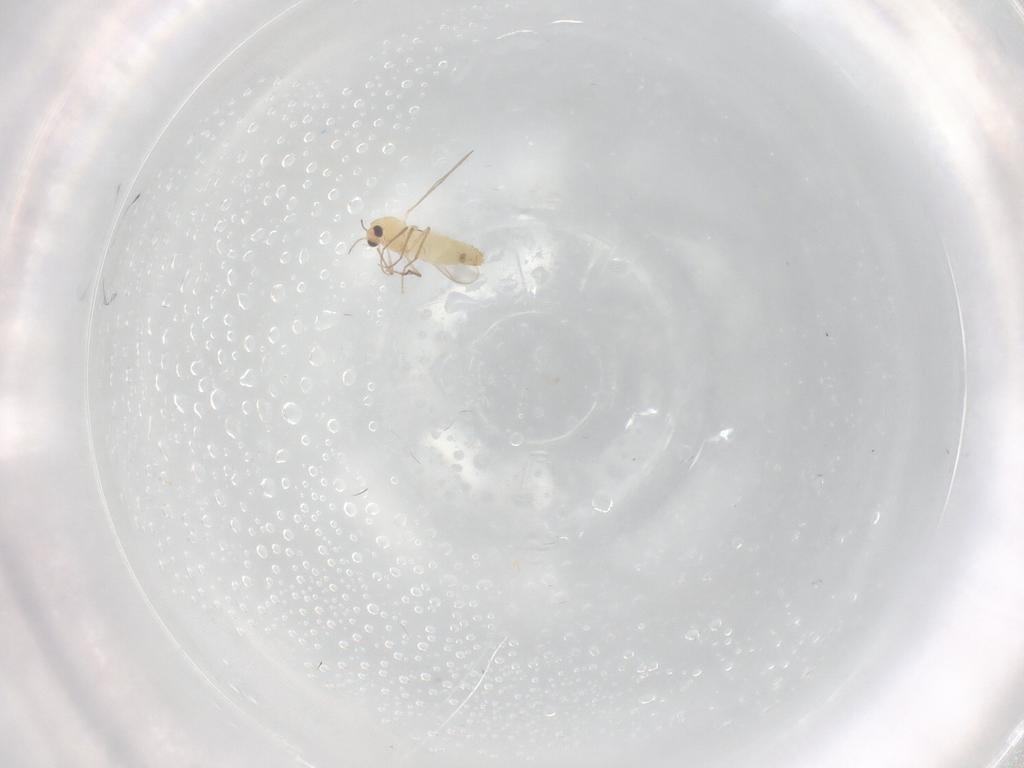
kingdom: Animalia
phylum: Arthropoda
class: Insecta
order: Diptera
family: Chironomidae
